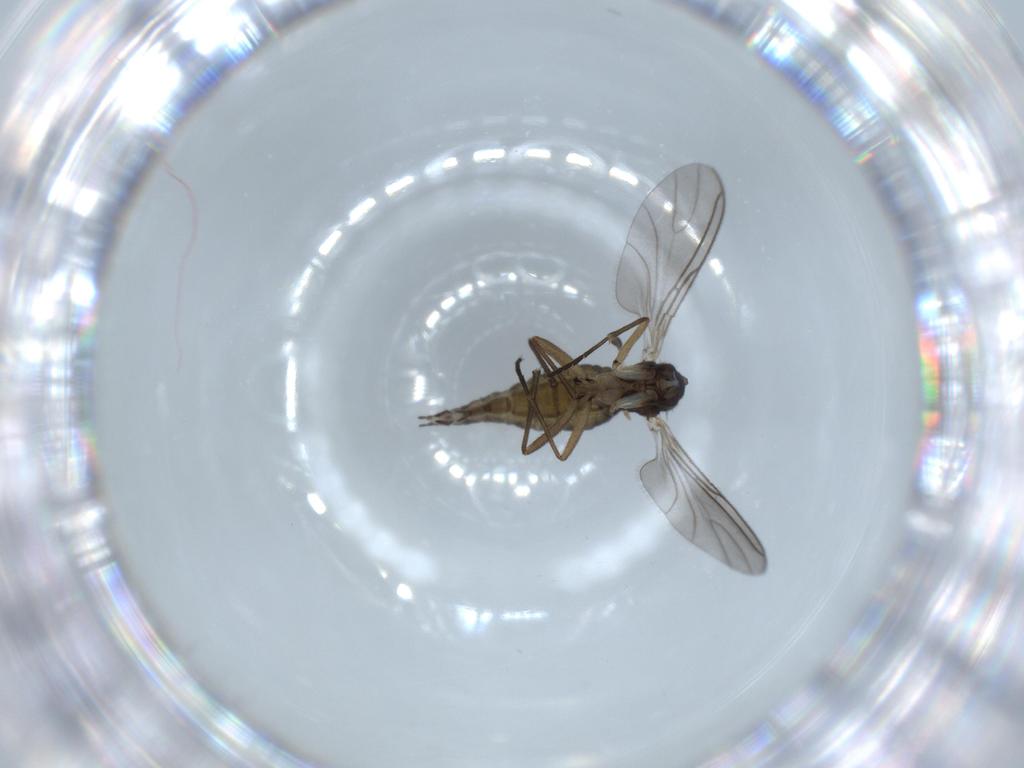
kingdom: Animalia
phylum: Arthropoda
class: Insecta
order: Diptera
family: Sciaridae
